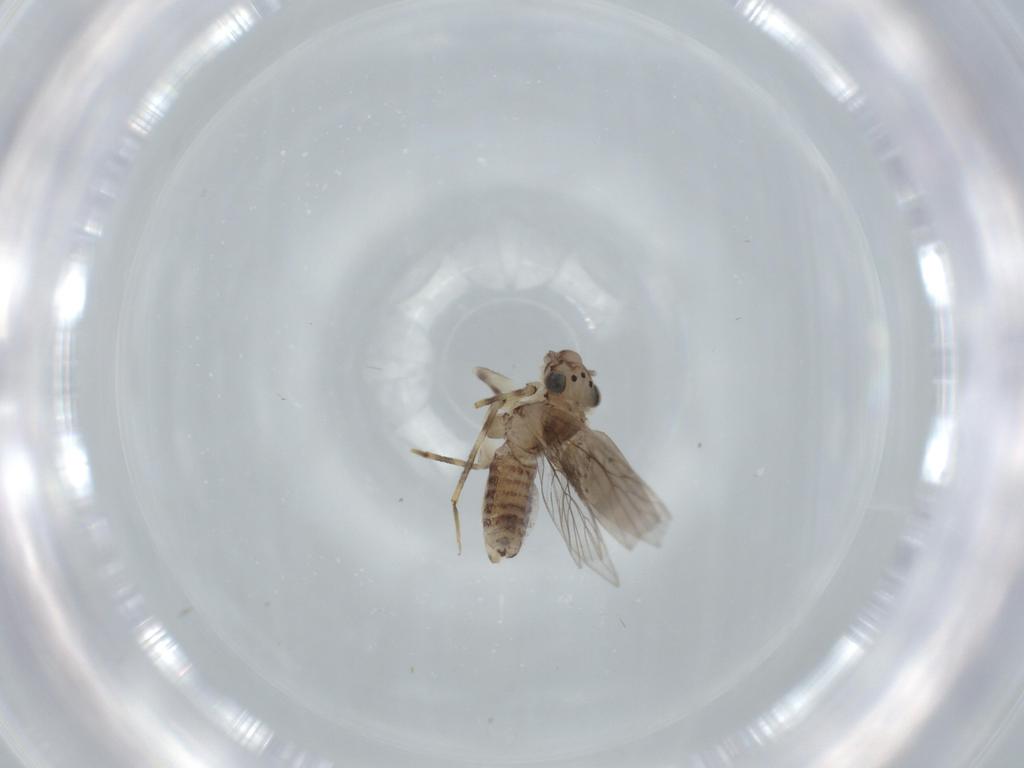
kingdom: Animalia
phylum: Arthropoda
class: Insecta
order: Psocodea
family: Lepidopsocidae
